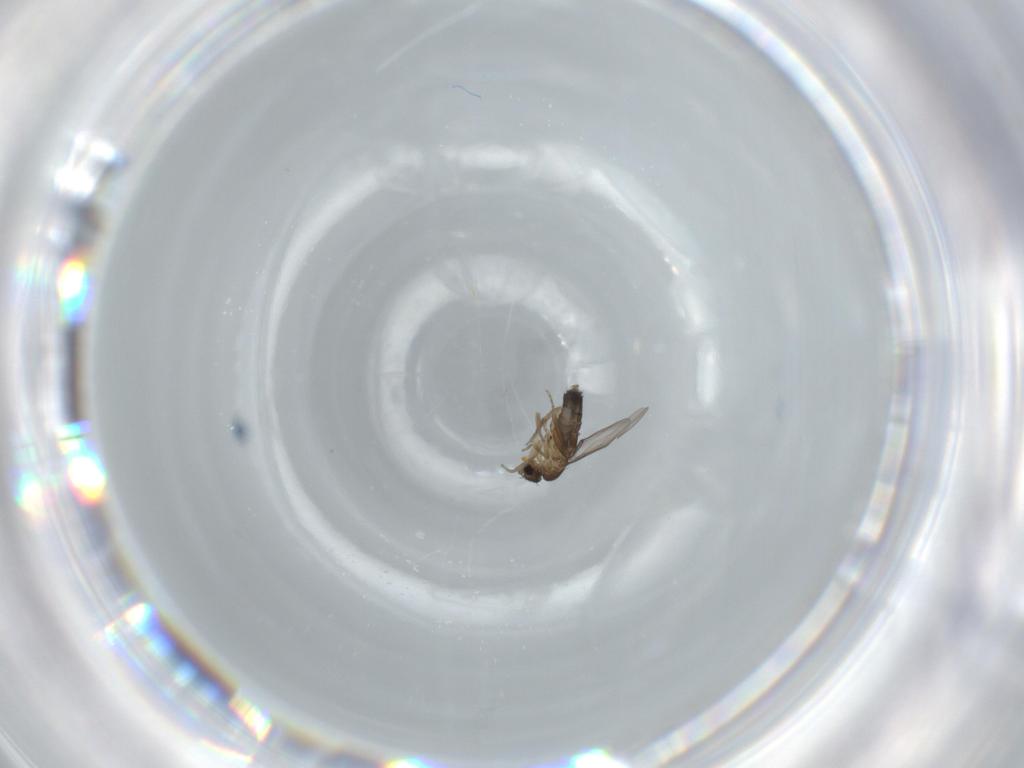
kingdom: Animalia
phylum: Arthropoda
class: Insecta
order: Diptera
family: Phoridae
